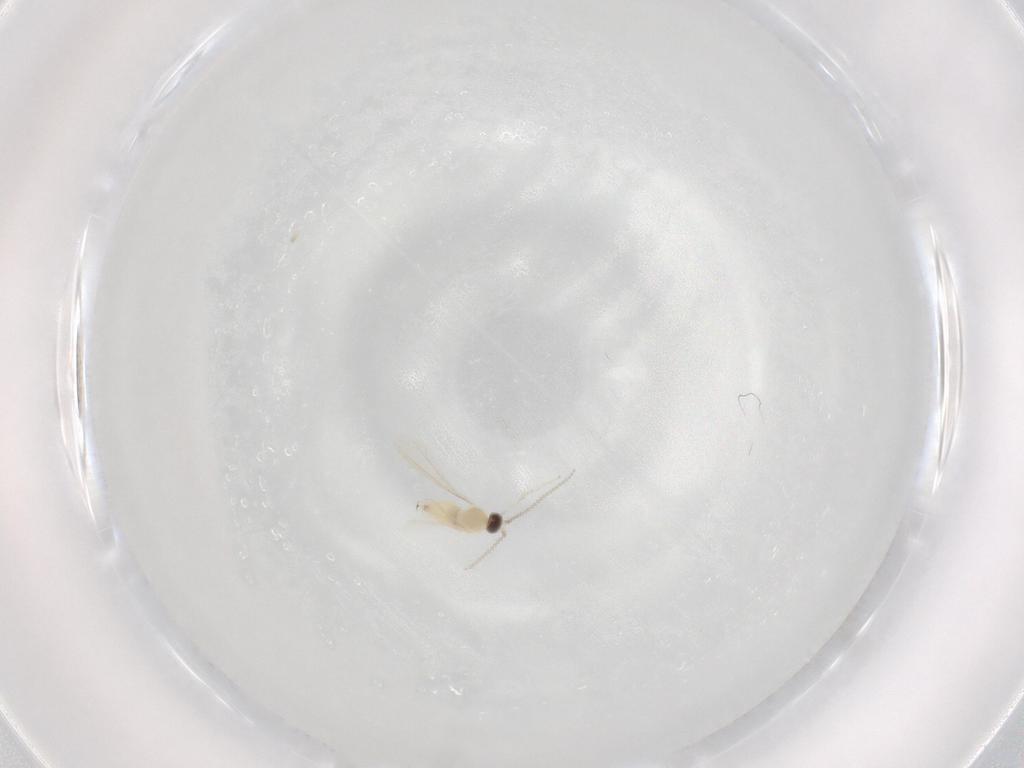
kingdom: Animalia
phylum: Arthropoda
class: Insecta
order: Diptera
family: Cecidomyiidae
